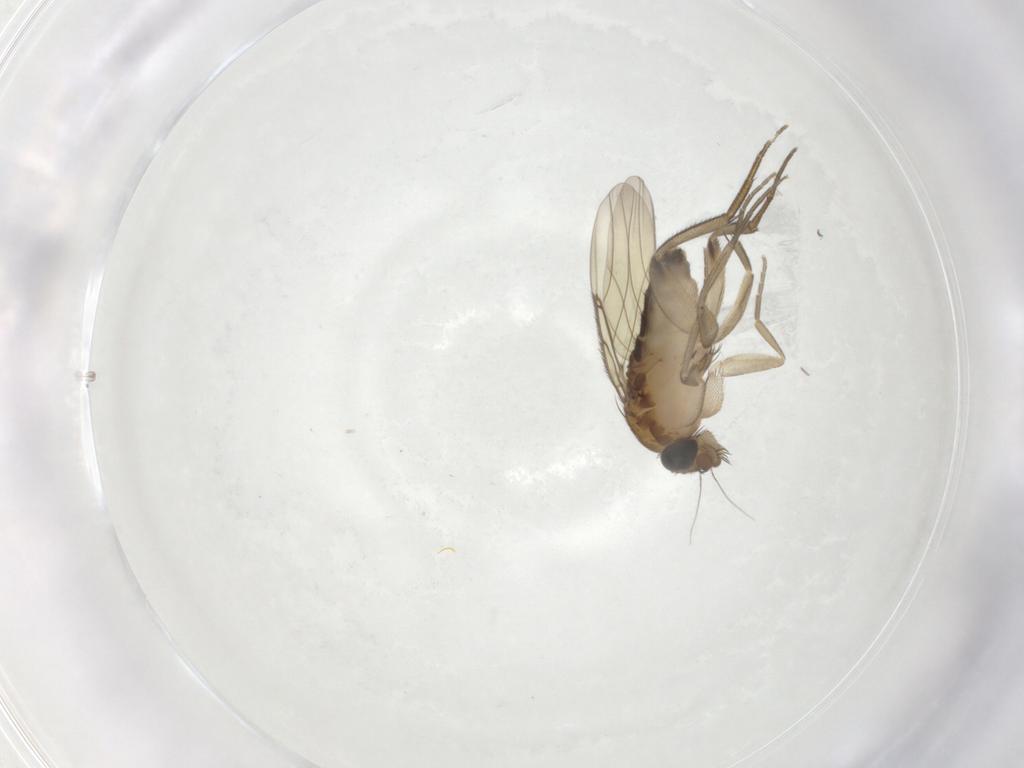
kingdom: Animalia
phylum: Arthropoda
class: Insecta
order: Diptera
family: Phoridae
